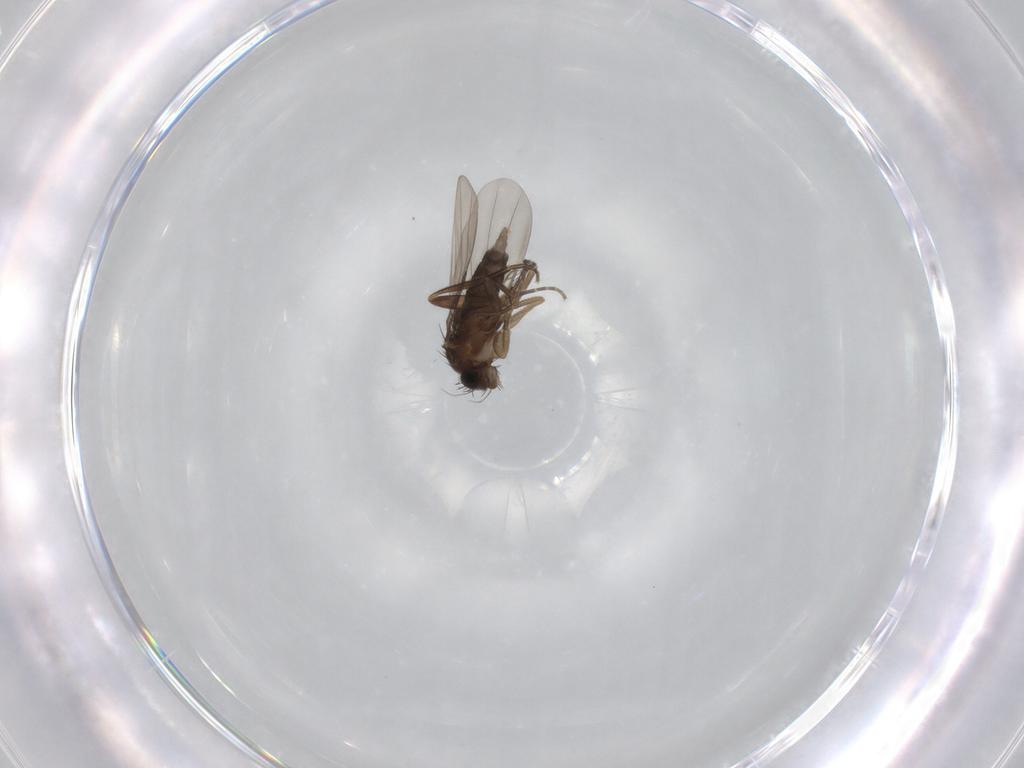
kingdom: Animalia
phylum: Arthropoda
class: Insecta
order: Diptera
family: Phoridae
